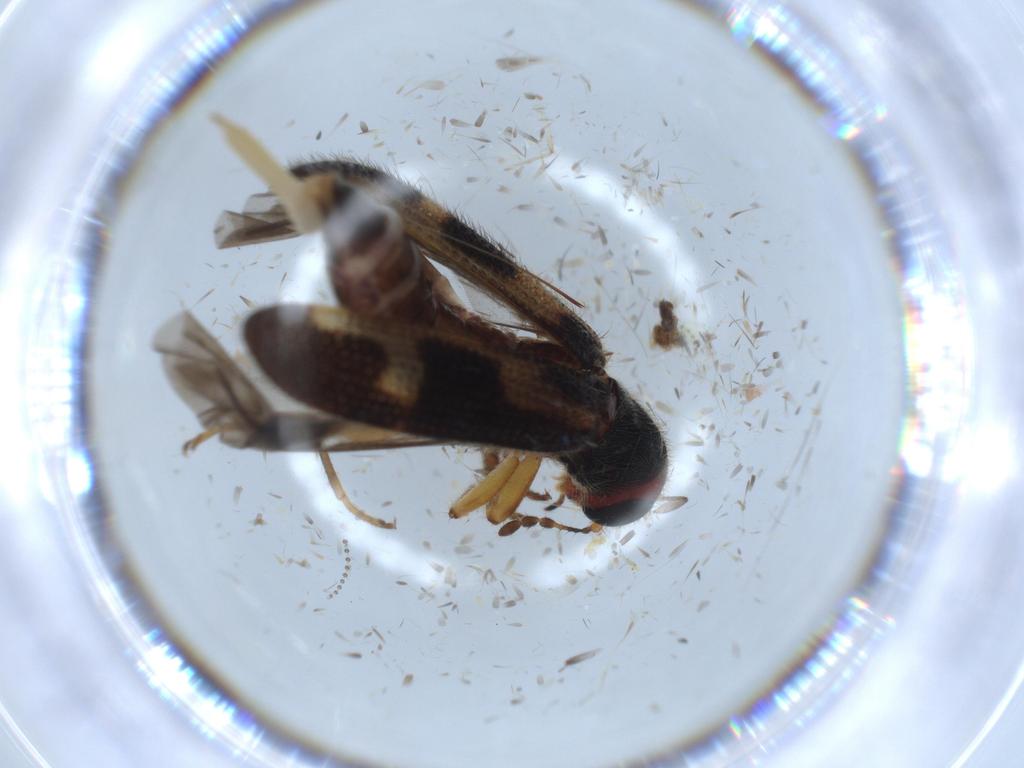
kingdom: Animalia
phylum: Arthropoda
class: Insecta
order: Coleoptera
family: Cleridae
